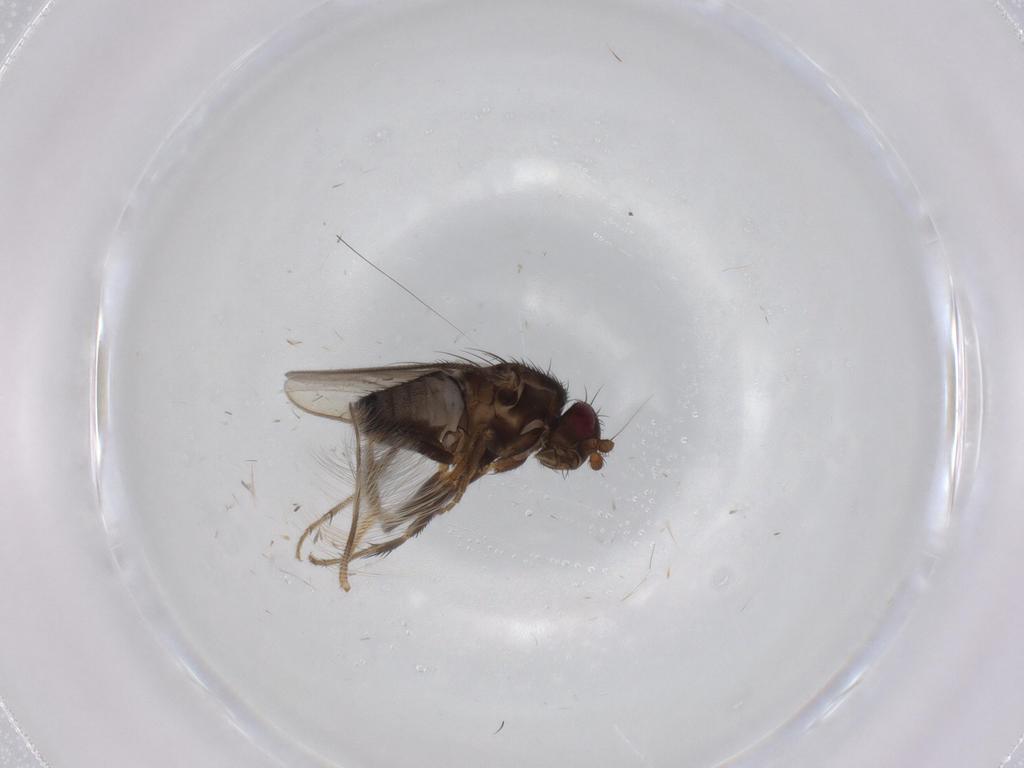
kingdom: Animalia
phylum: Arthropoda
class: Insecta
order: Diptera
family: Sphaeroceridae
